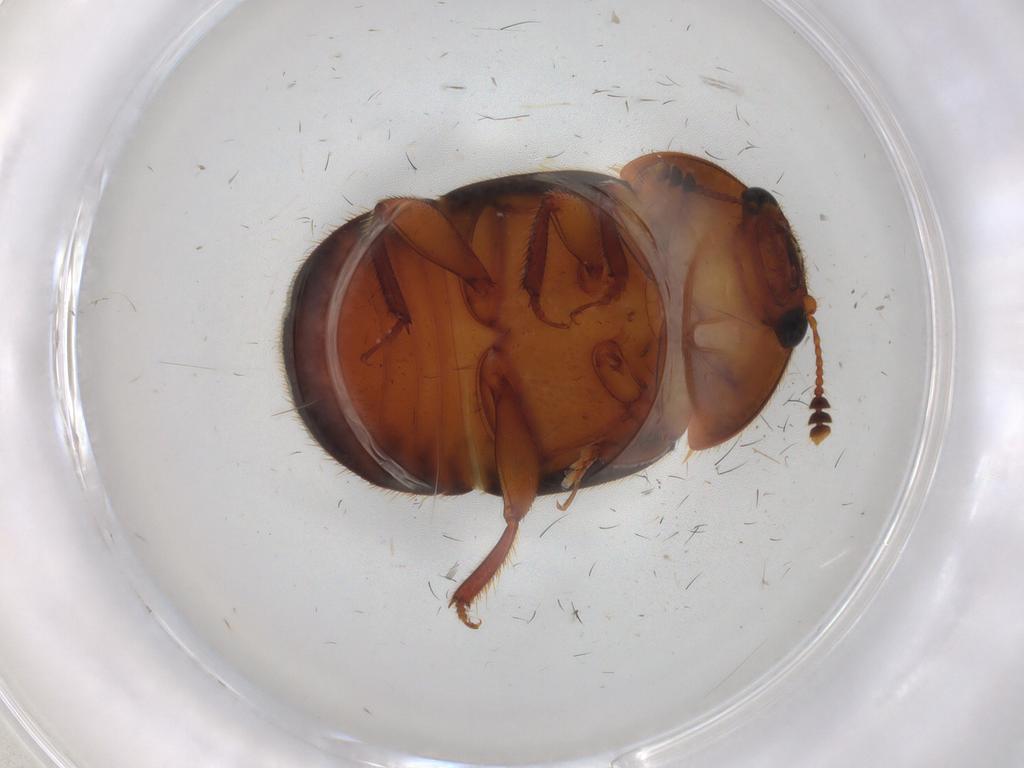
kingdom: Animalia
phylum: Arthropoda
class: Insecta
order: Coleoptera
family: Nitidulidae
